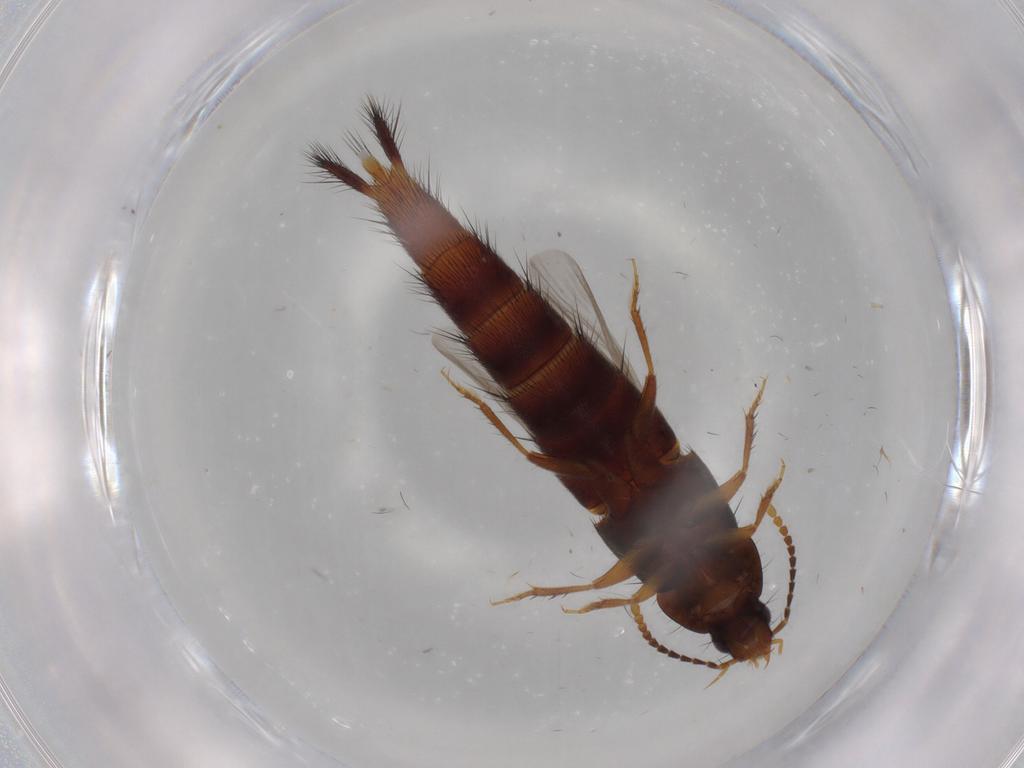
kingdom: Animalia
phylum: Arthropoda
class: Insecta
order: Coleoptera
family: Staphylinidae
